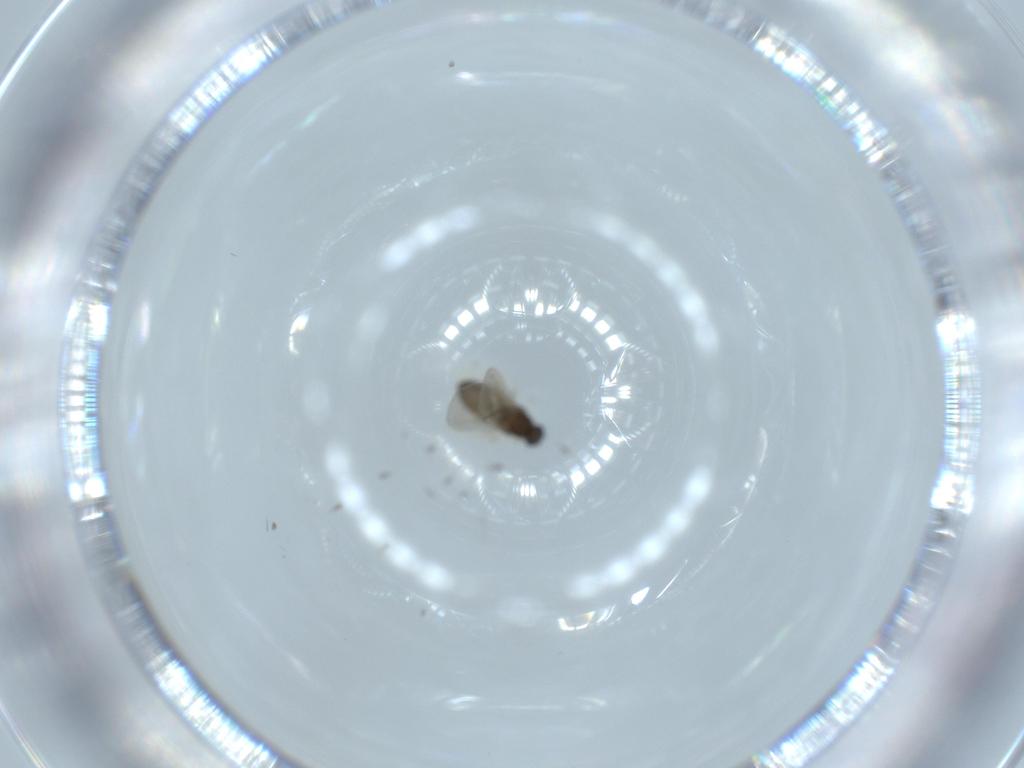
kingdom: Animalia
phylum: Arthropoda
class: Insecta
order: Diptera
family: Cecidomyiidae
